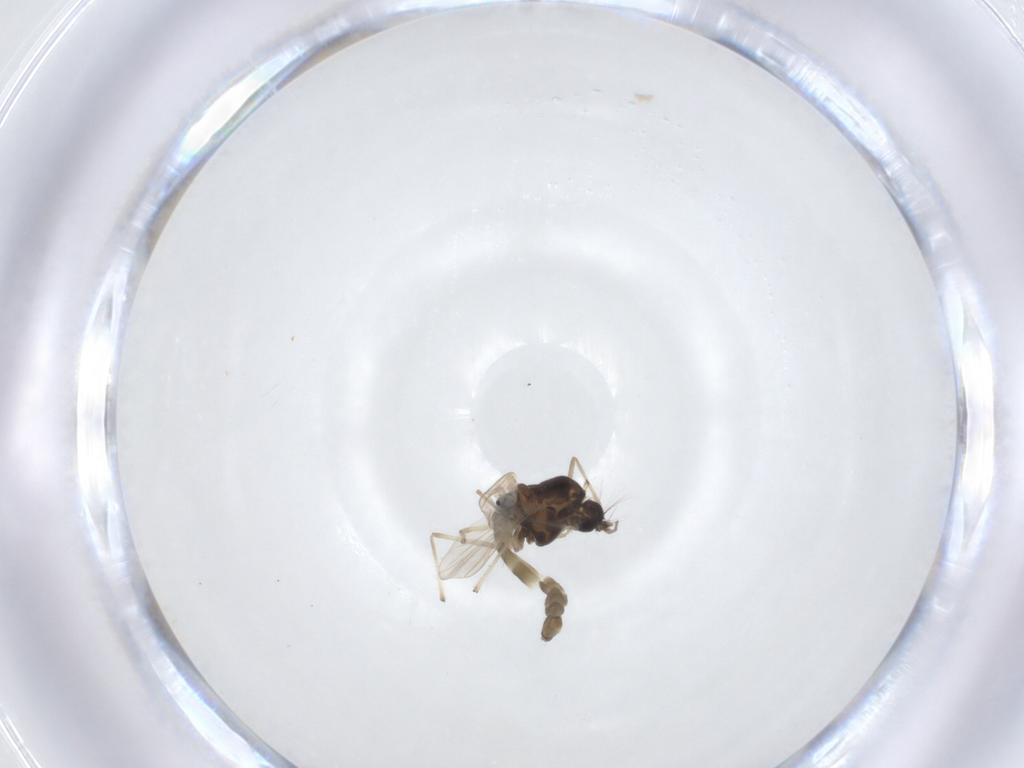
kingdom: Animalia
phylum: Arthropoda
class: Insecta
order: Diptera
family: Chironomidae
